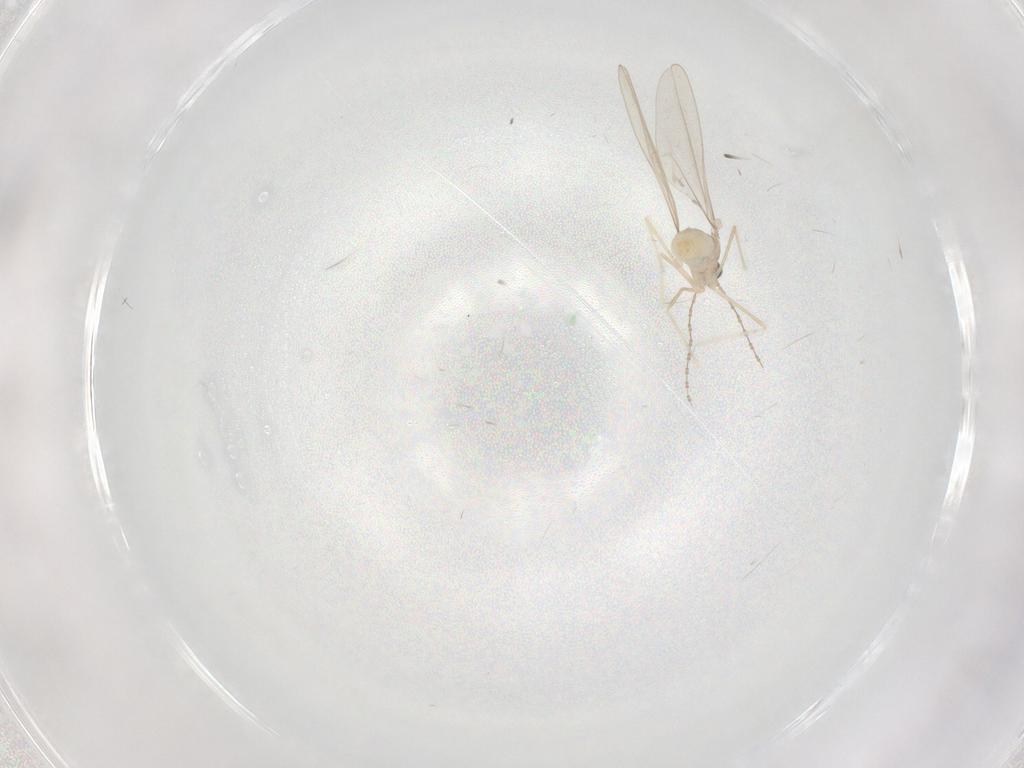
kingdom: Animalia
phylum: Arthropoda
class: Insecta
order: Diptera
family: Cecidomyiidae
